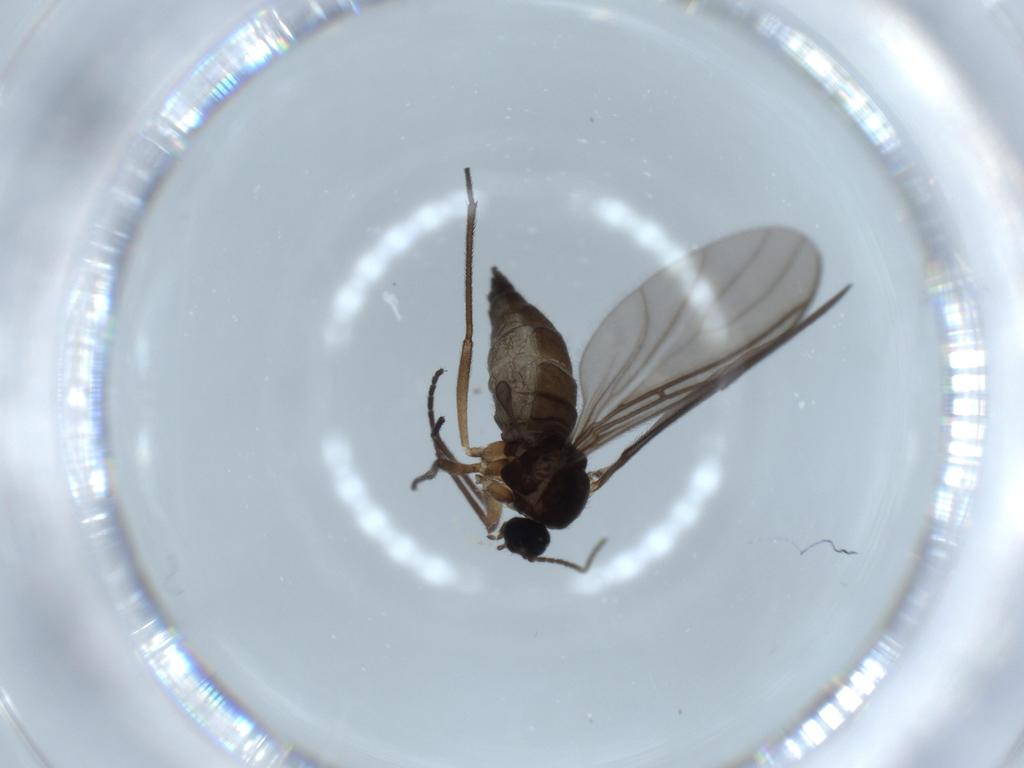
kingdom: Animalia
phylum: Arthropoda
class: Insecta
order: Diptera
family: Sciaridae
